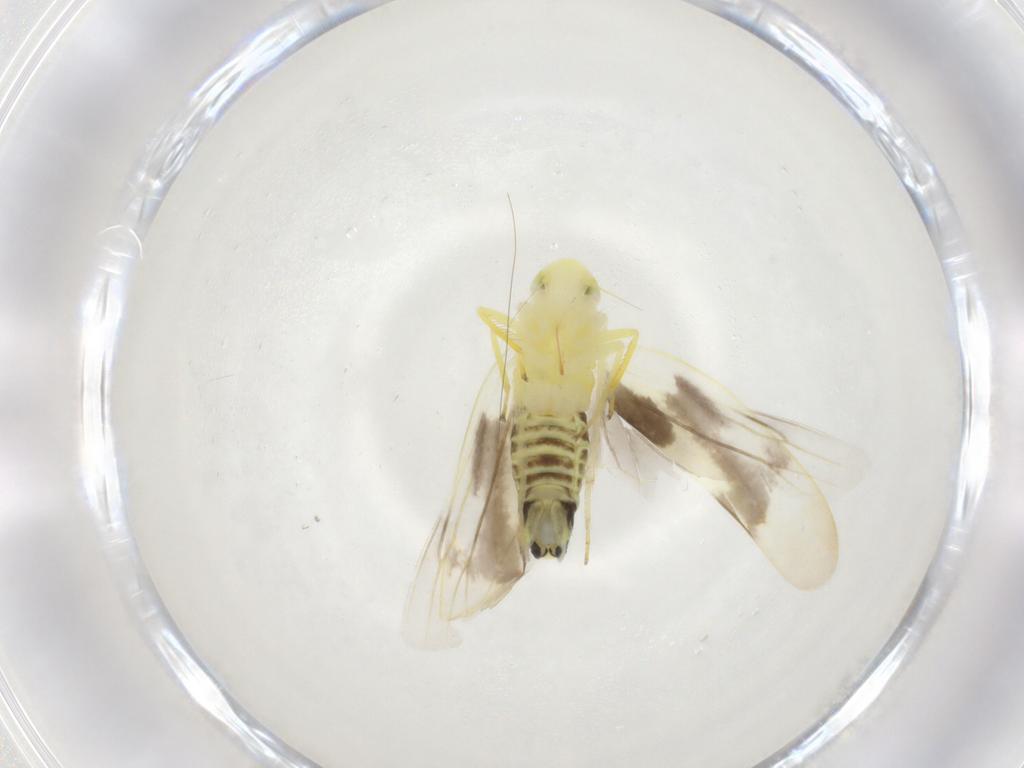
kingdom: Animalia
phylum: Arthropoda
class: Insecta
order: Hemiptera
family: Cicadellidae
